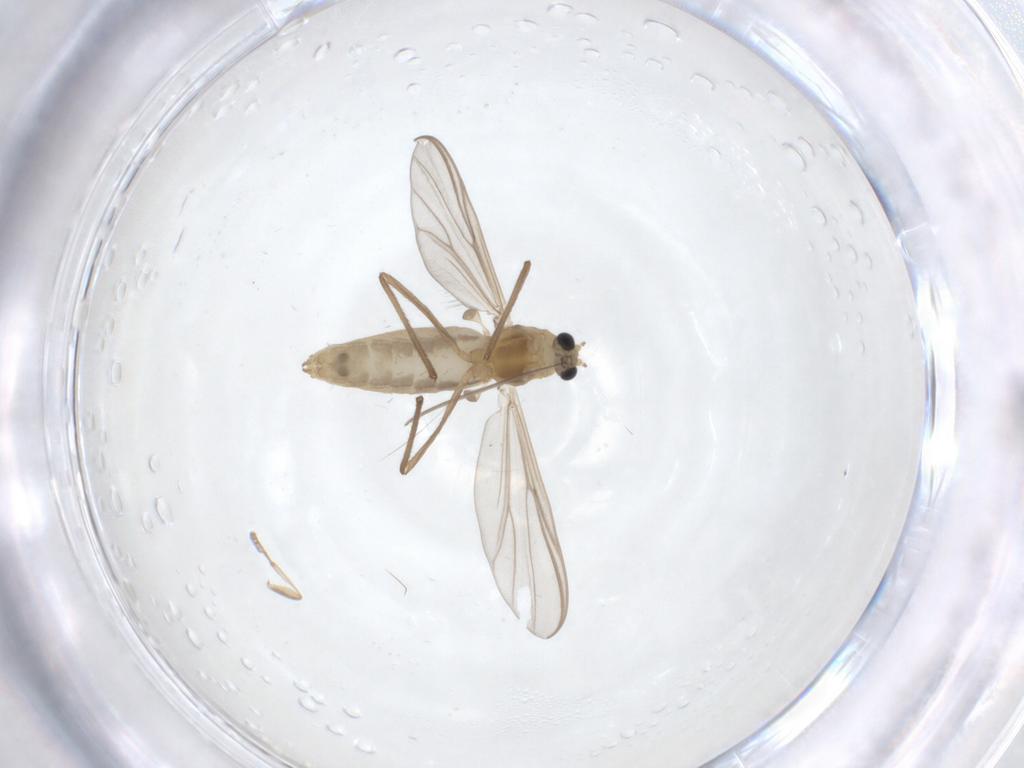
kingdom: Animalia
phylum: Arthropoda
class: Insecta
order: Diptera
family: Chironomidae
